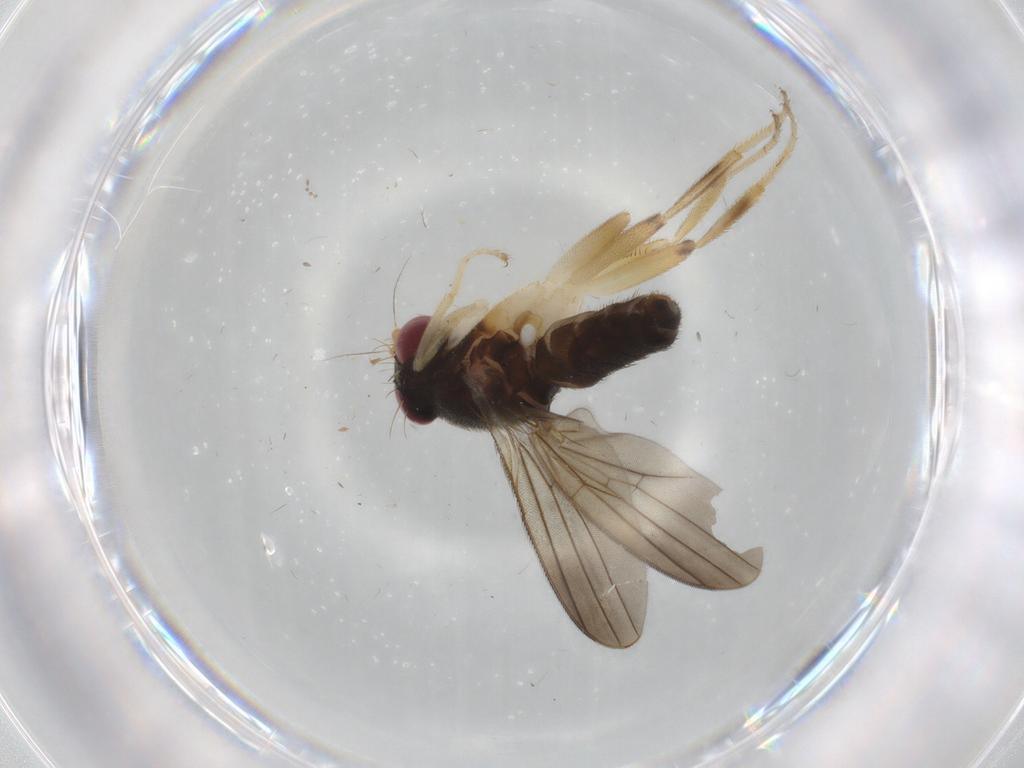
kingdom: Animalia
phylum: Arthropoda
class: Insecta
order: Diptera
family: Clusiidae
